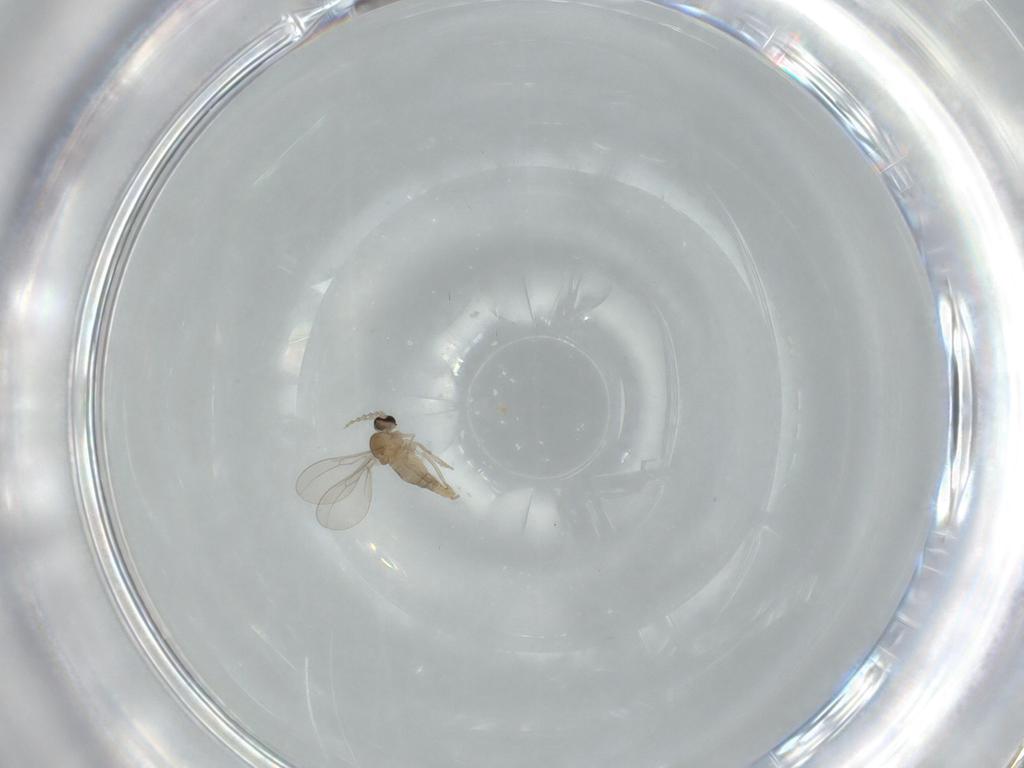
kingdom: Animalia
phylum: Arthropoda
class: Insecta
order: Diptera
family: Cecidomyiidae
